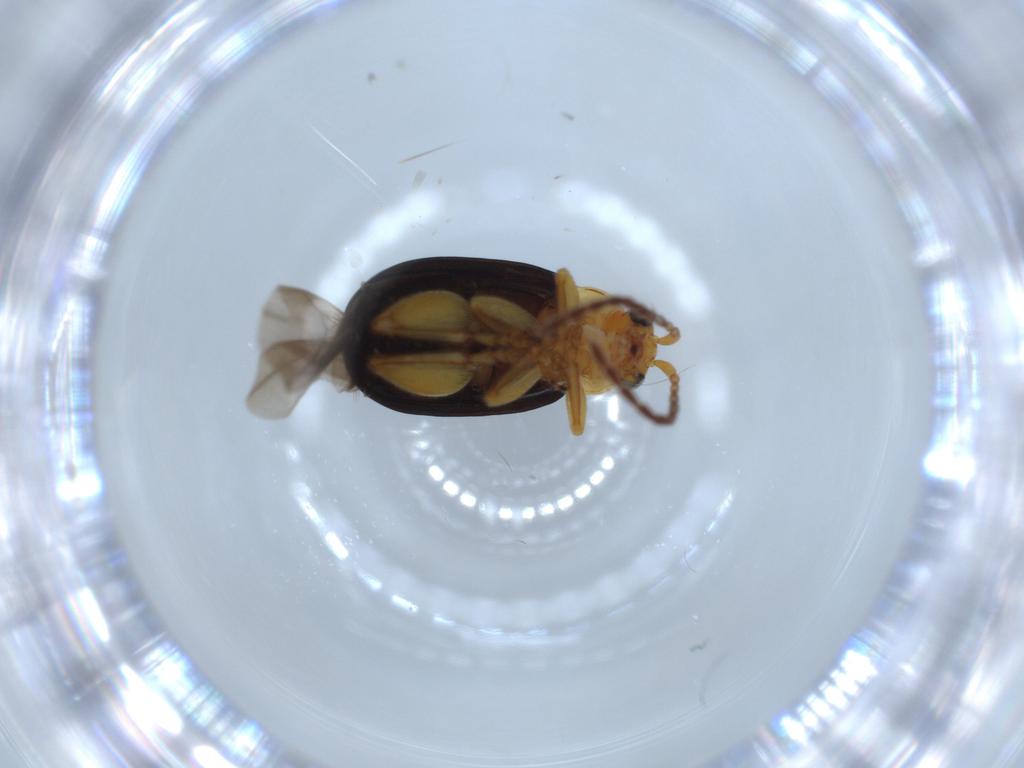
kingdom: Animalia
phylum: Arthropoda
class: Insecta
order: Coleoptera
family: Chrysomelidae
